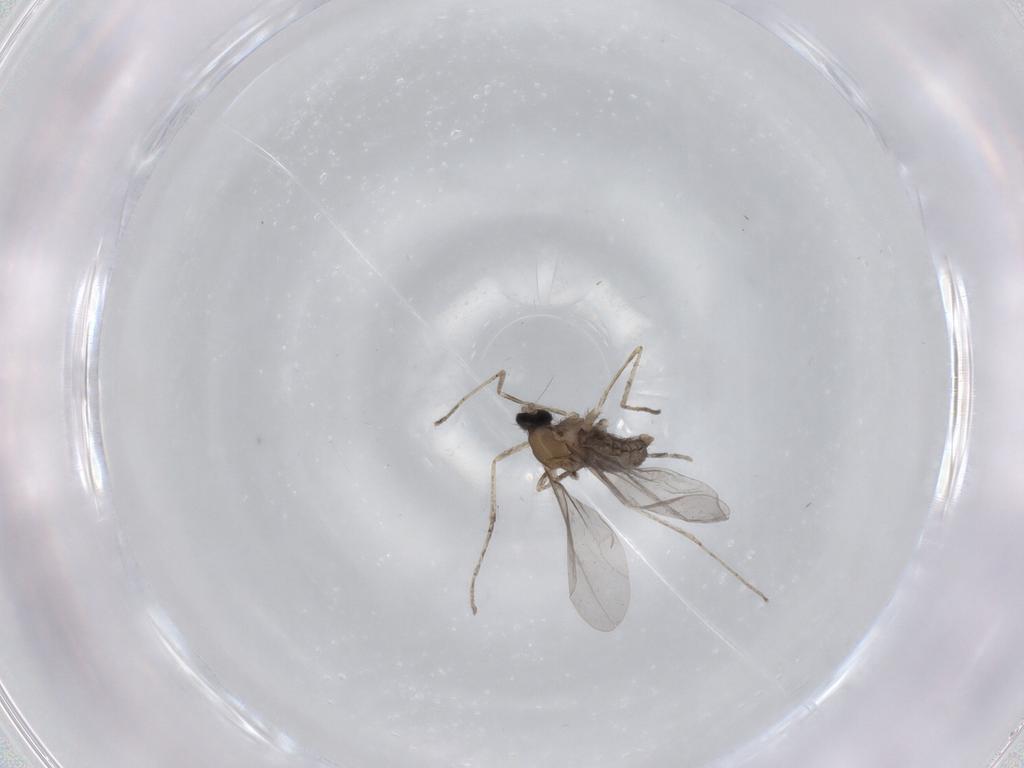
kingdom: Animalia
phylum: Arthropoda
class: Insecta
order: Diptera
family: Cecidomyiidae
